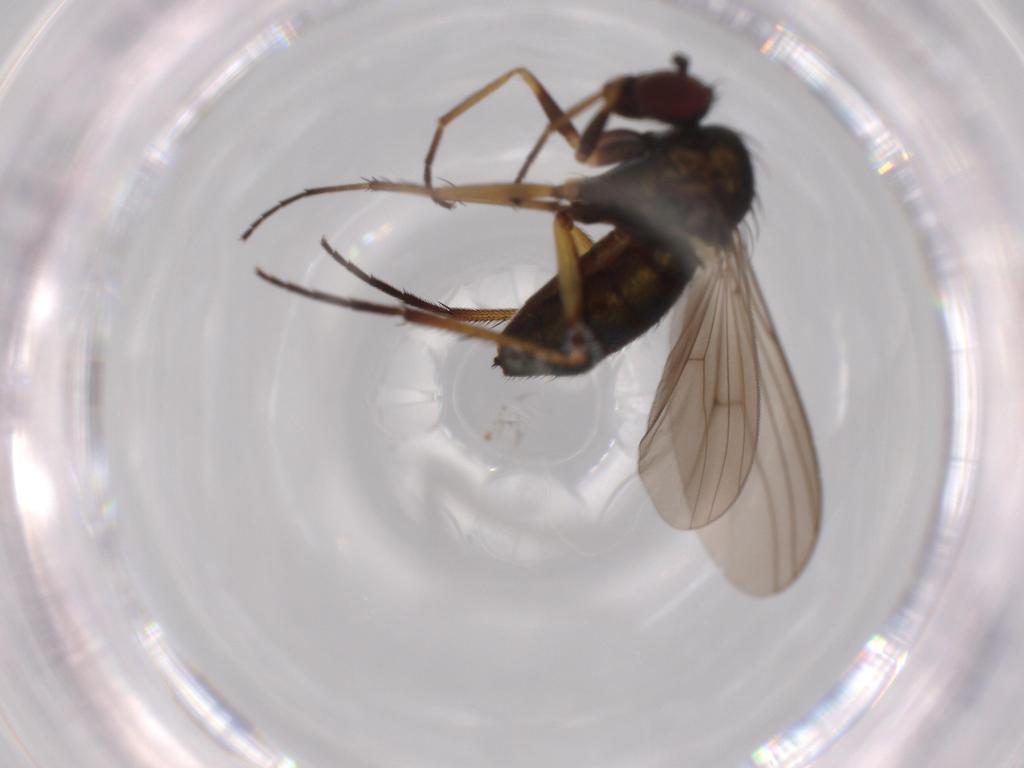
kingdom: Animalia
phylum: Arthropoda
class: Insecta
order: Diptera
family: Dolichopodidae
